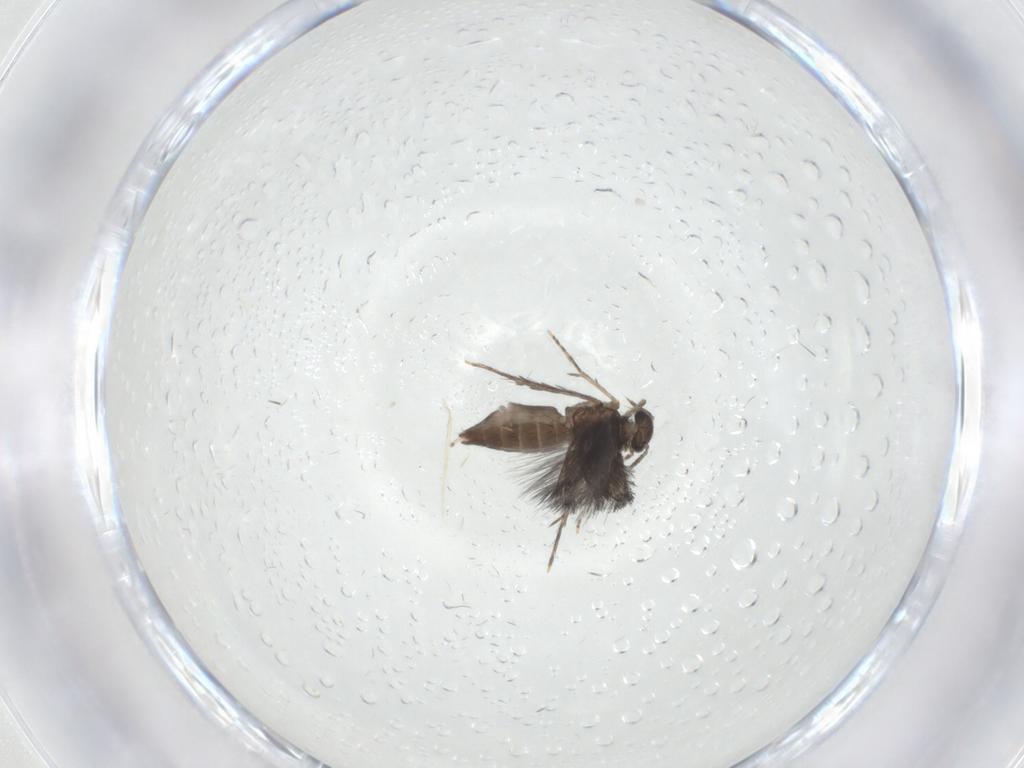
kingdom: Animalia
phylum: Arthropoda
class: Insecta
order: Trichoptera
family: Hydroptilidae
